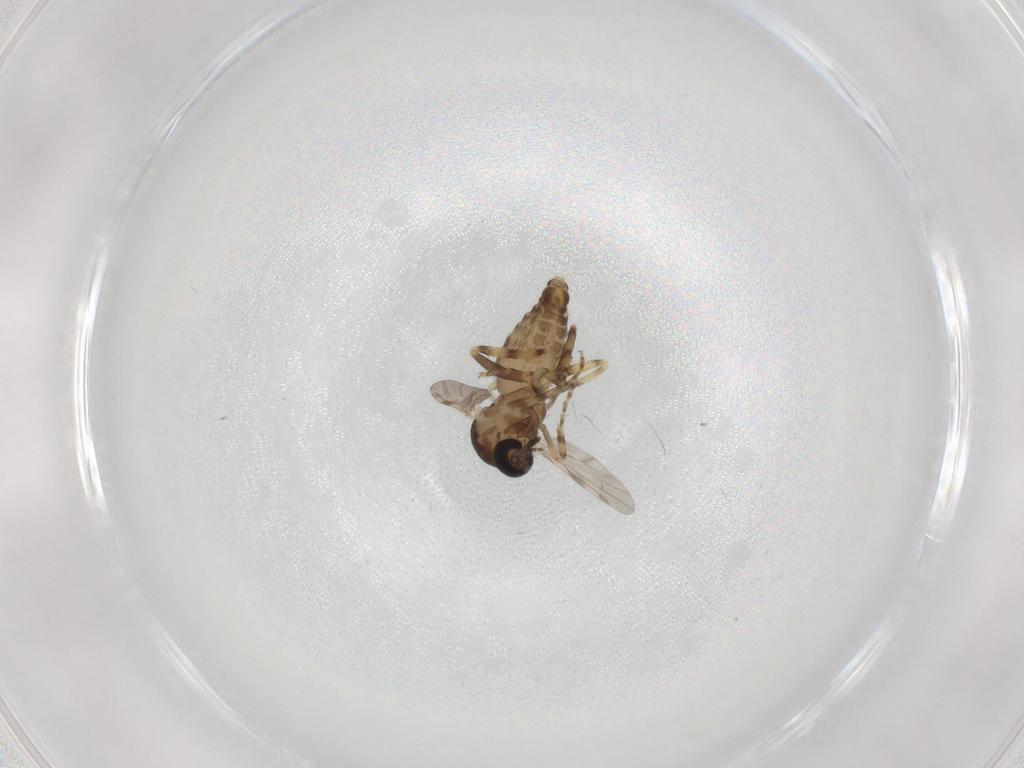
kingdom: Animalia
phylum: Arthropoda
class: Insecta
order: Diptera
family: Ceratopogonidae
